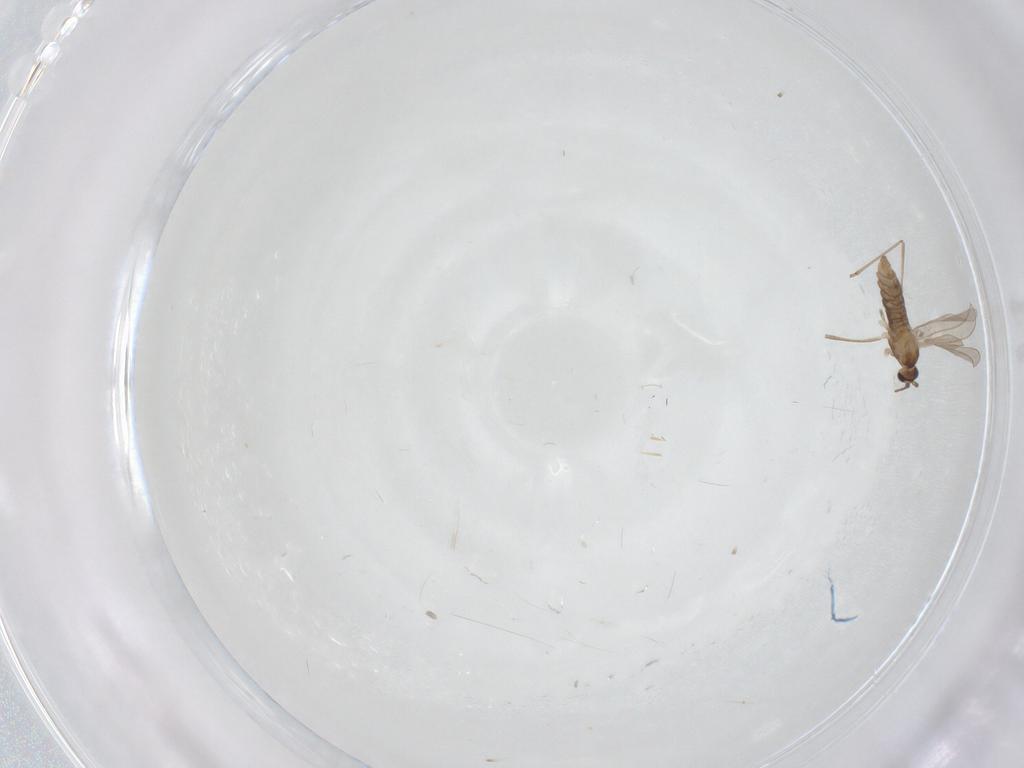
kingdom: Animalia
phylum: Arthropoda
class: Insecta
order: Diptera
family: Cecidomyiidae
